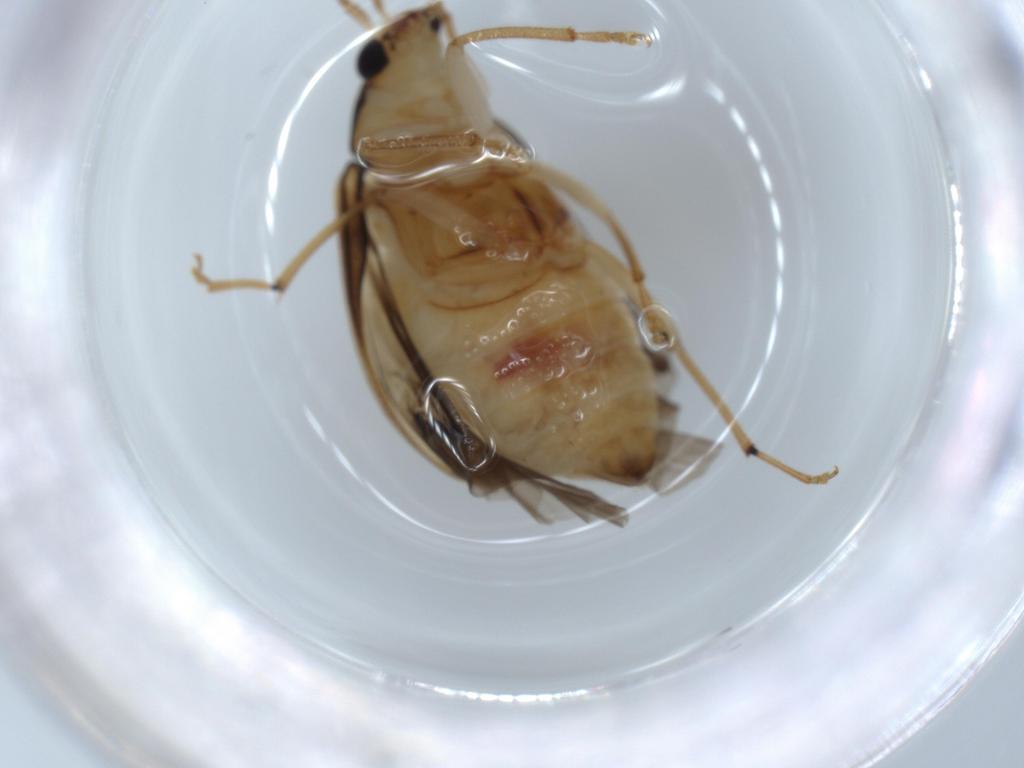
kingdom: Animalia
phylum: Arthropoda
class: Insecta
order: Coleoptera
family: Chrysomelidae
